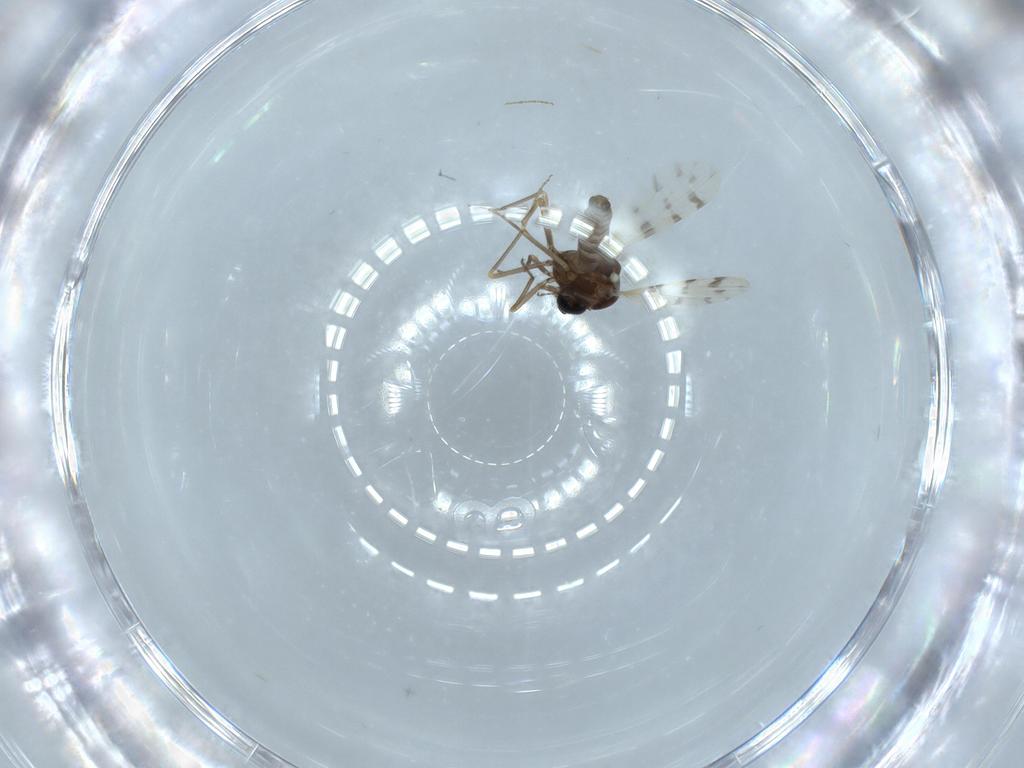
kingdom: Animalia
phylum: Arthropoda
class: Insecta
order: Diptera
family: Ceratopogonidae
